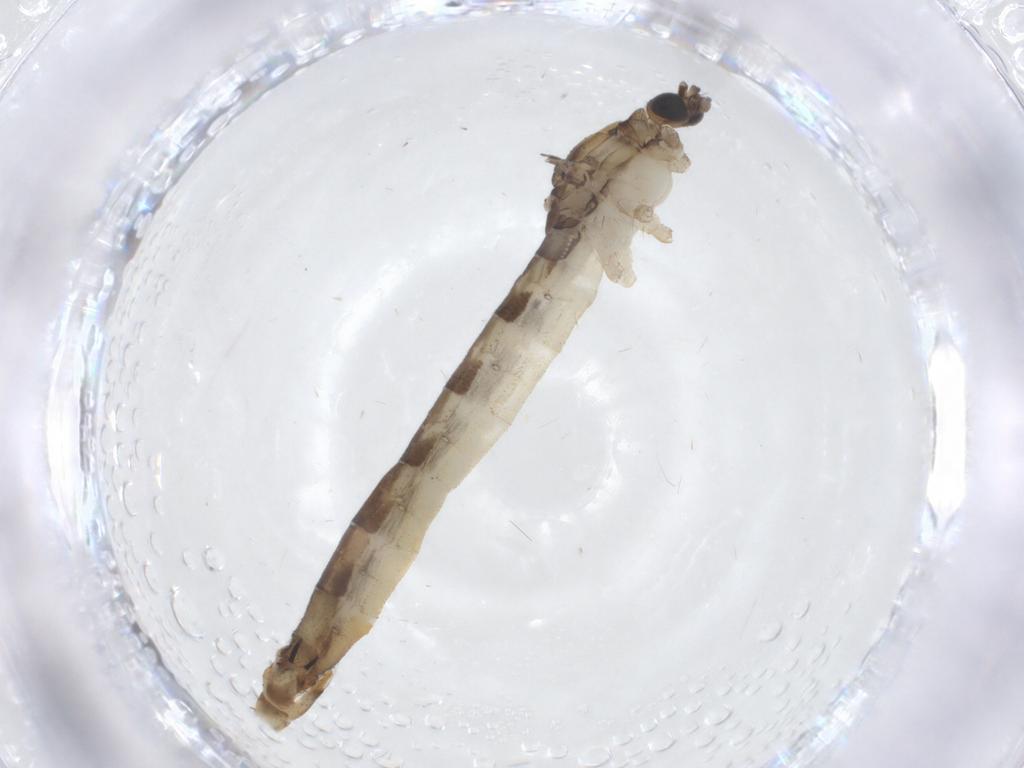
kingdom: Animalia
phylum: Arthropoda
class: Insecta
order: Diptera
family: Limoniidae
